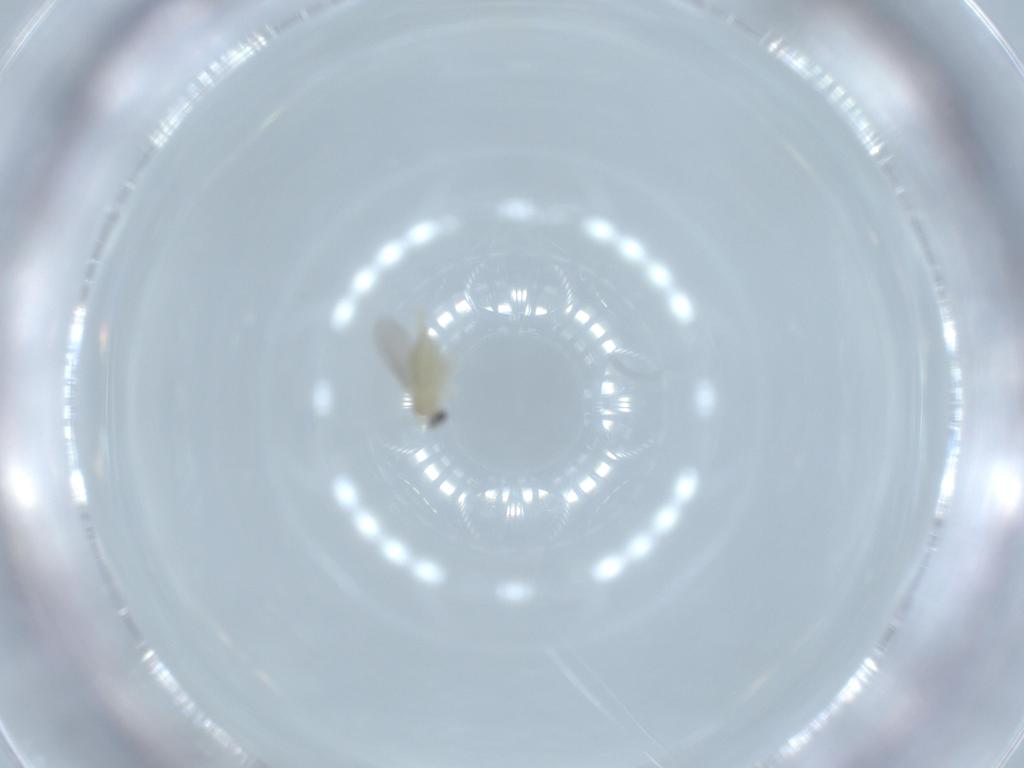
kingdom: Animalia
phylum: Arthropoda
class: Insecta
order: Diptera
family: Cecidomyiidae
